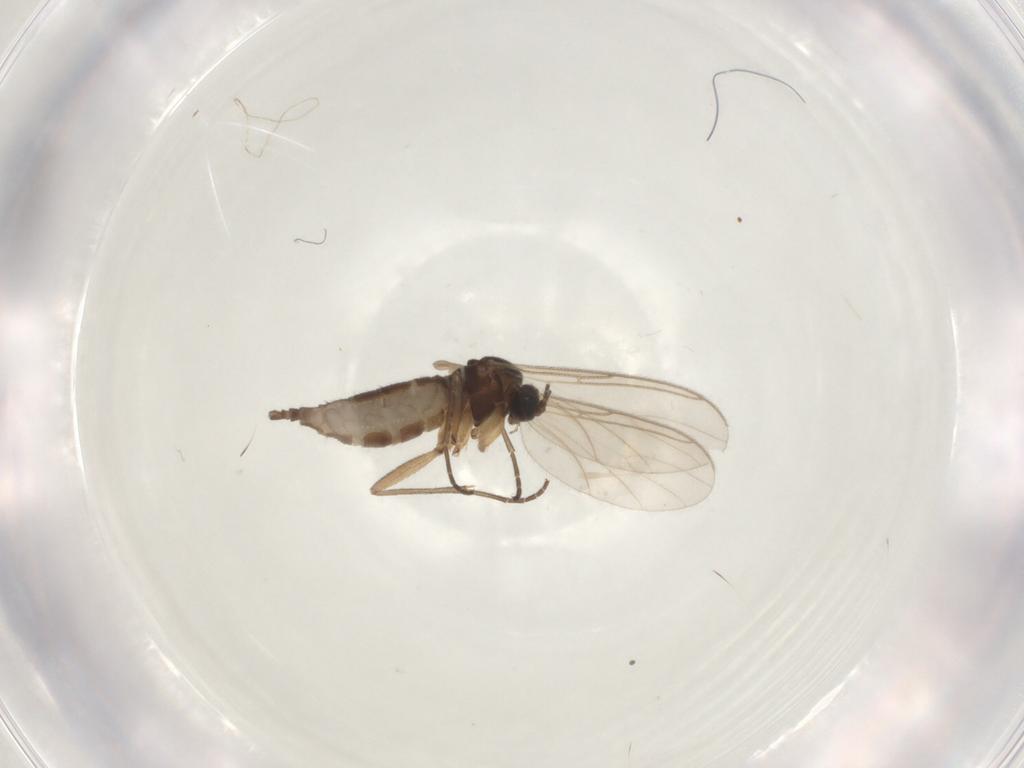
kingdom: Animalia
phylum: Arthropoda
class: Insecta
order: Diptera
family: Sciaridae
